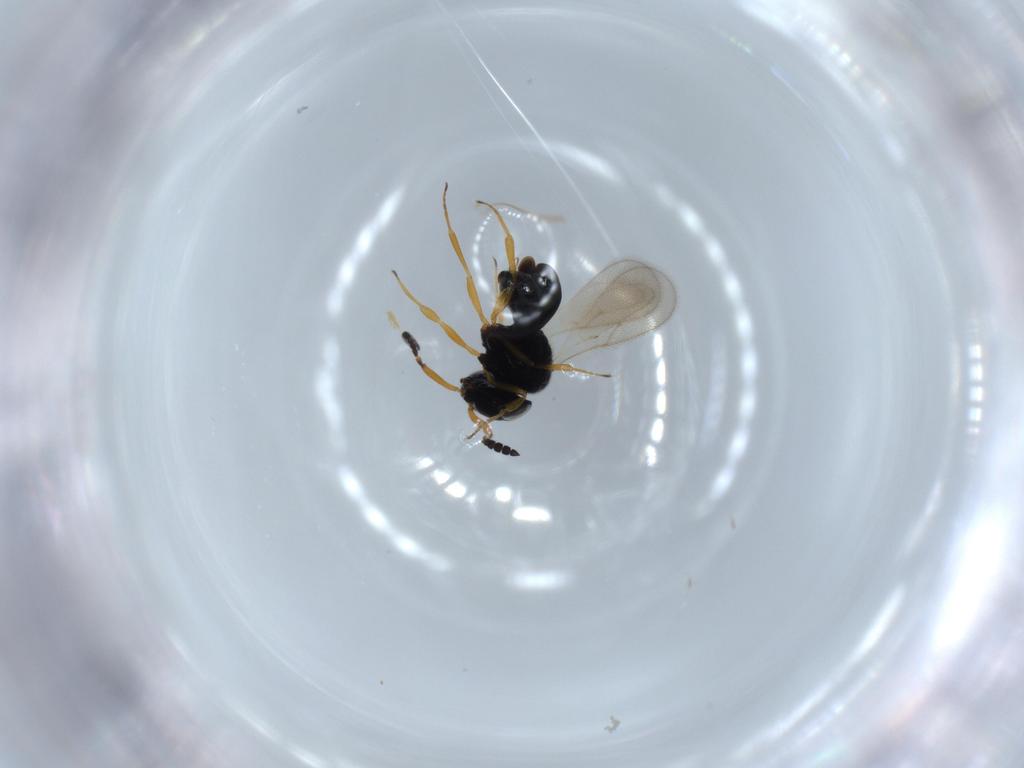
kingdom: Animalia
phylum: Arthropoda
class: Insecta
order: Hymenoptera
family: Scelionidae
